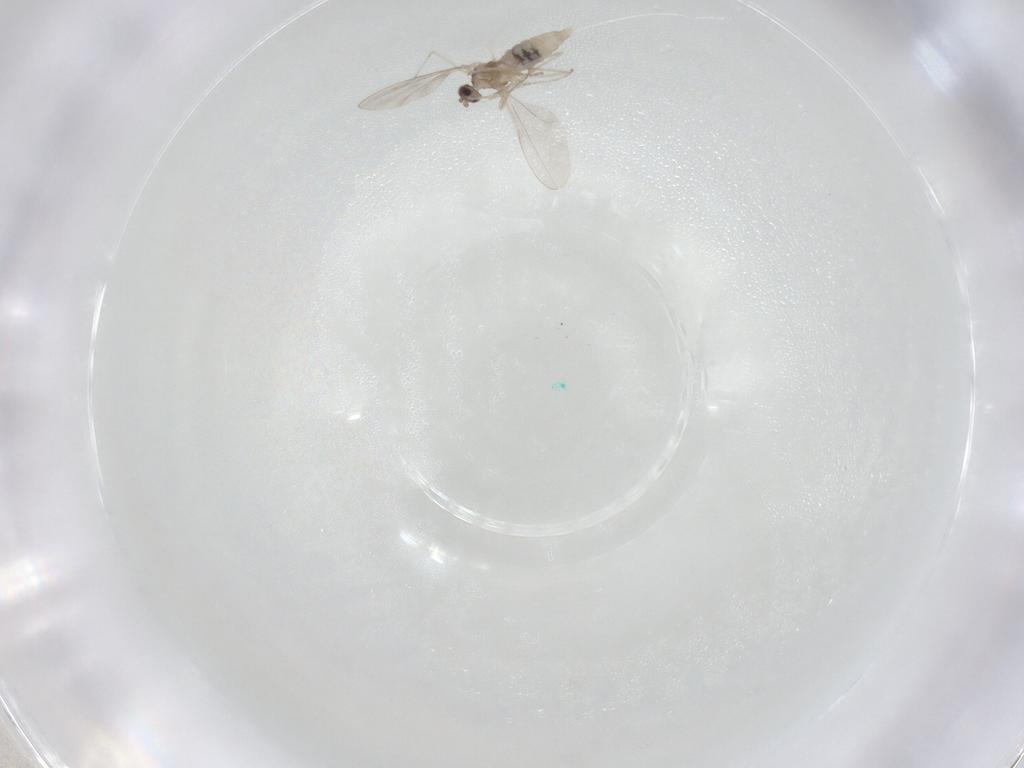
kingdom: Animalia
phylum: Arthropoda
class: Insecta
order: Diptera
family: Cecidomyiidae
